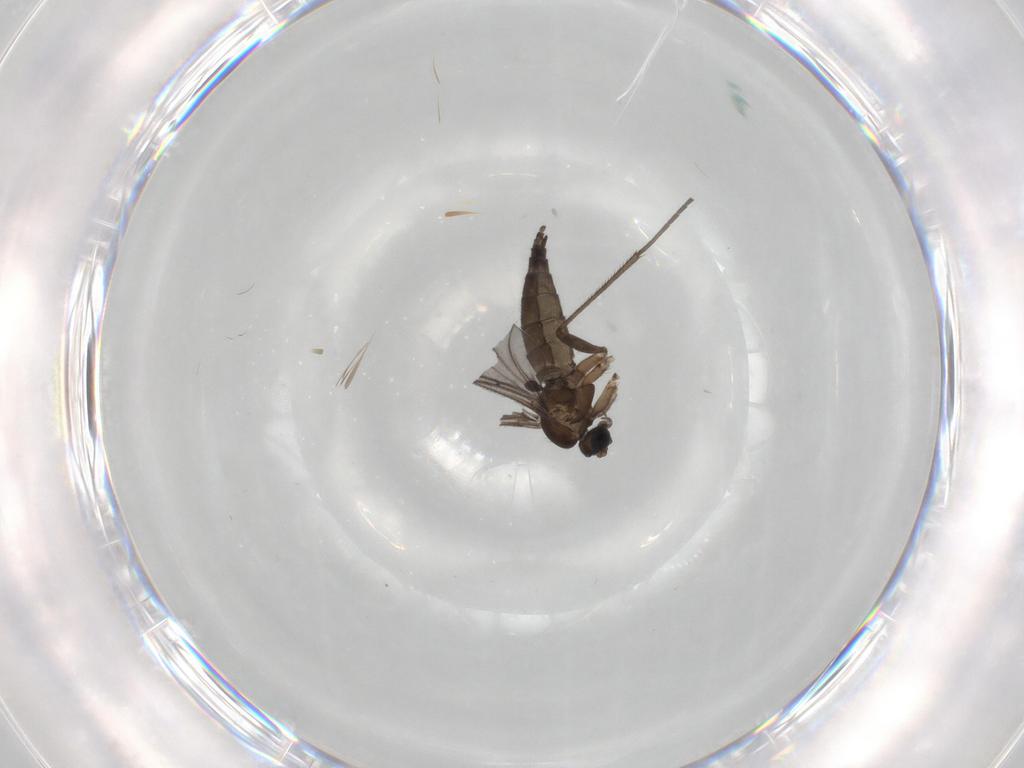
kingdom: Animalia
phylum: Arthropoda
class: Insecta
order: Diptera
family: Sciaridae
